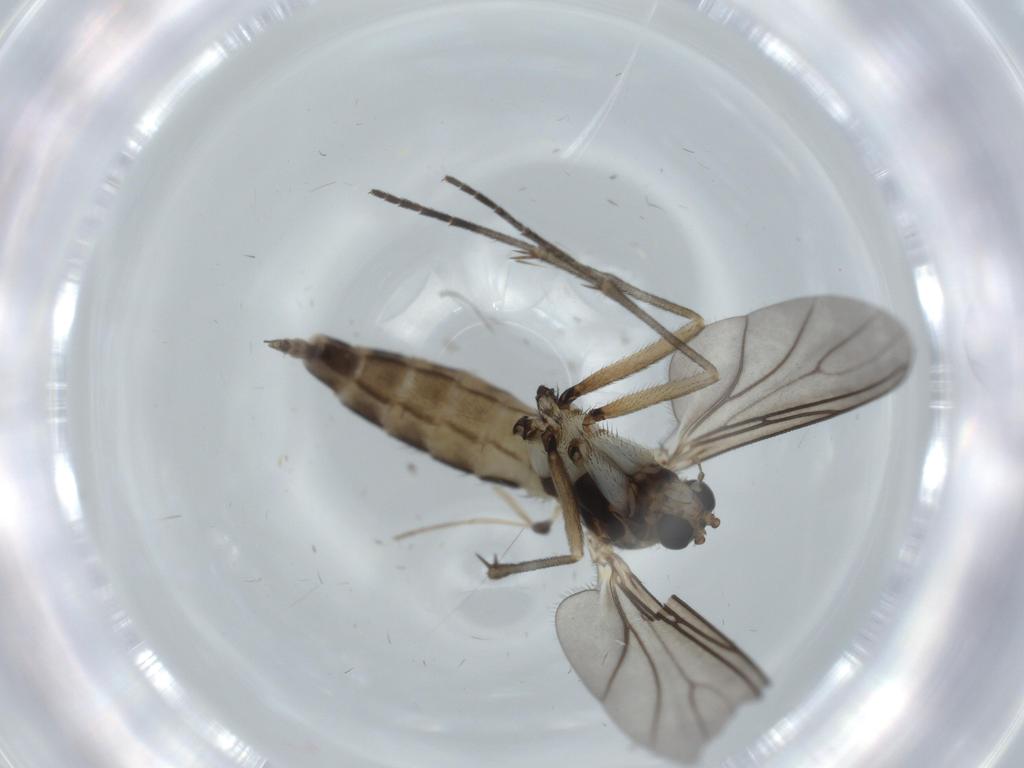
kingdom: Animalia
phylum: Arthropoda
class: Insecta
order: Diptera
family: Sciaridae
